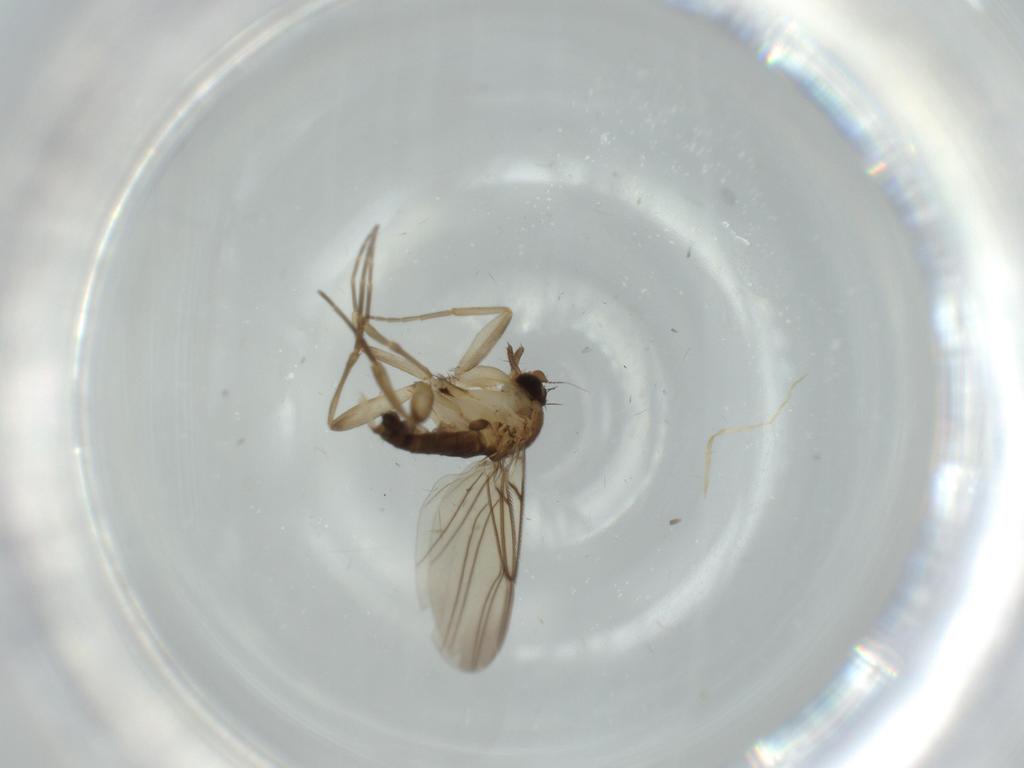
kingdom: Animalia
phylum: Arthropoda
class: Insecta
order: Diptera
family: Phoridae
